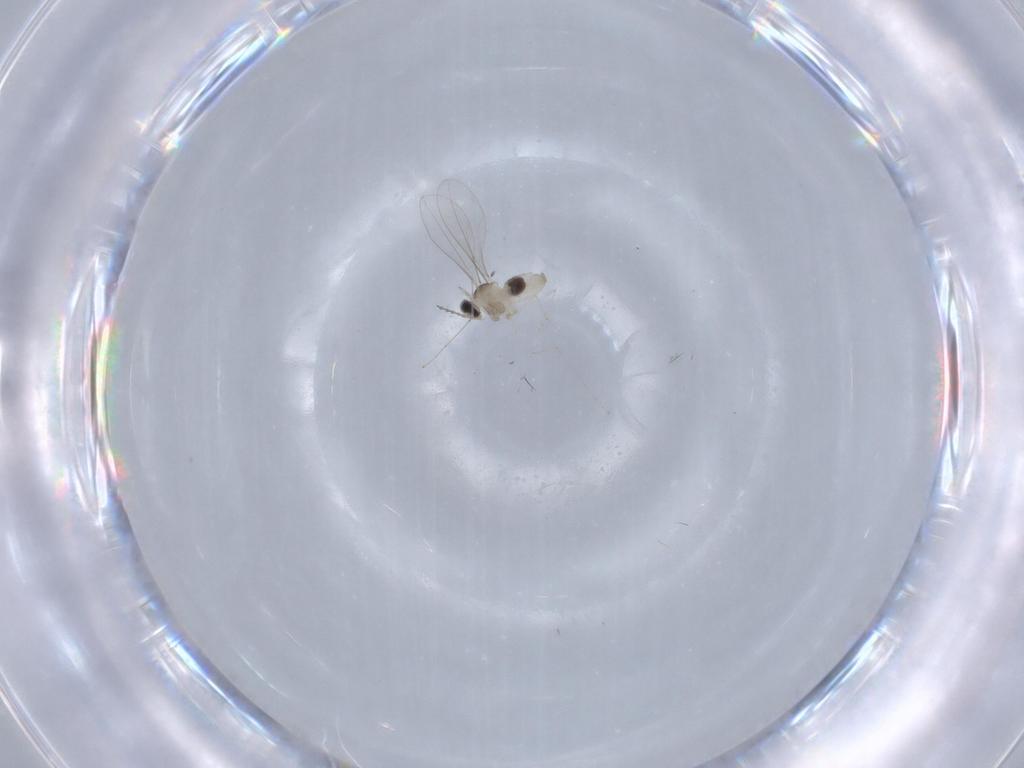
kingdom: Animalia
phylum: Arthropoda
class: Insecta
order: Diptera
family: Cecidomyiidae
